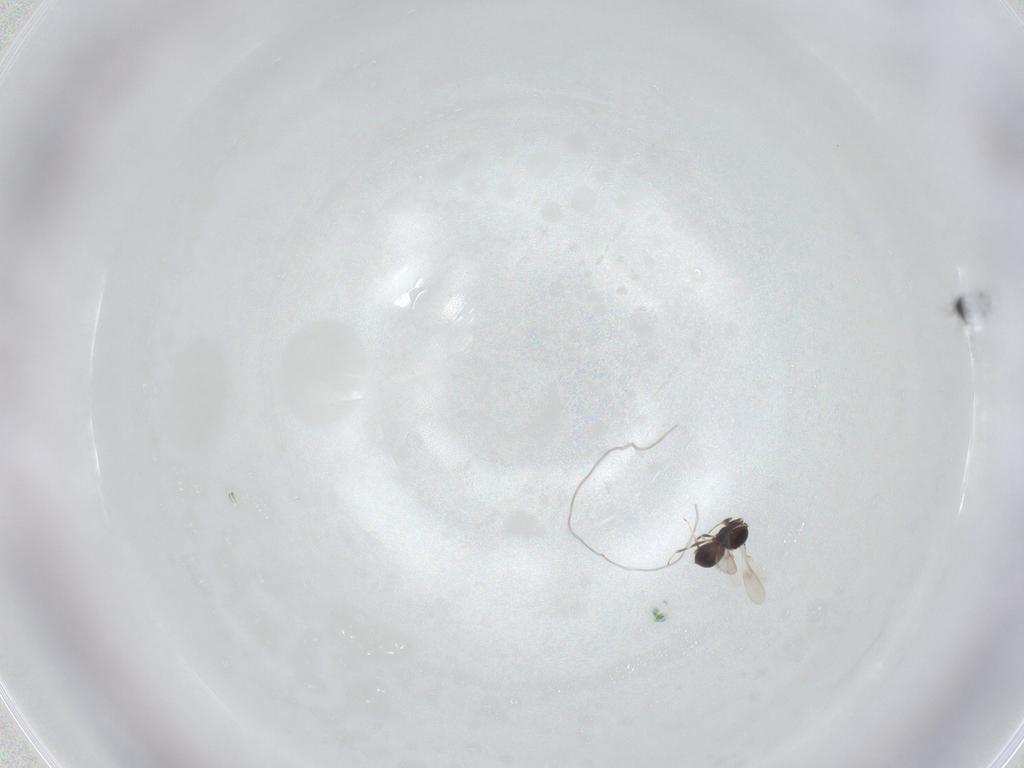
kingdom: Animalia
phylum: Arthropoda
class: Insecta
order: Hymenoptera
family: Scelionidae
